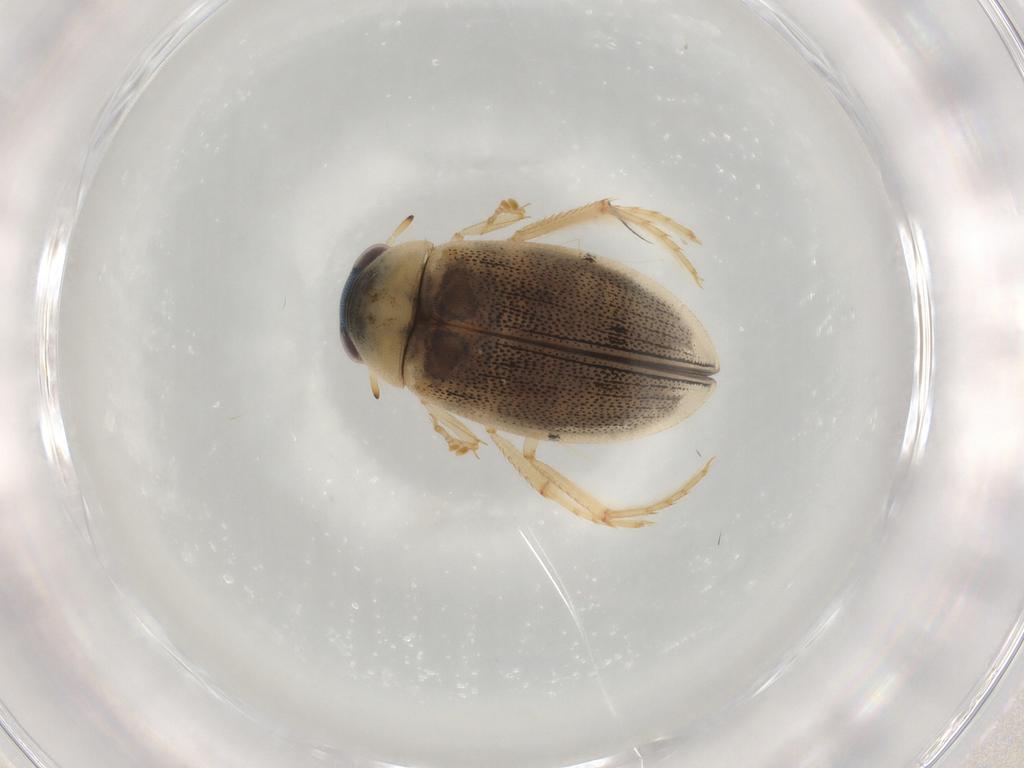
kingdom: Animalia
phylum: Arthropoda
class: Insecta
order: Coleoptera
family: Hydrophilidae
